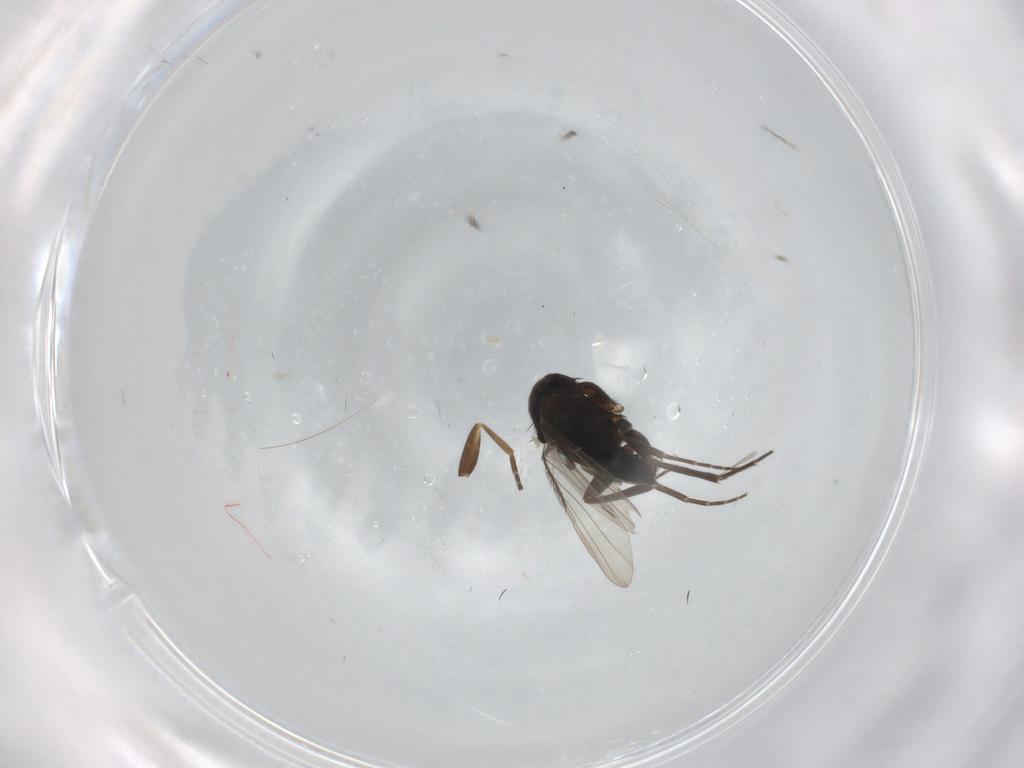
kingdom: Animalia
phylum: Arthropoda
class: Insecta
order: Diptera
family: Phoridae
